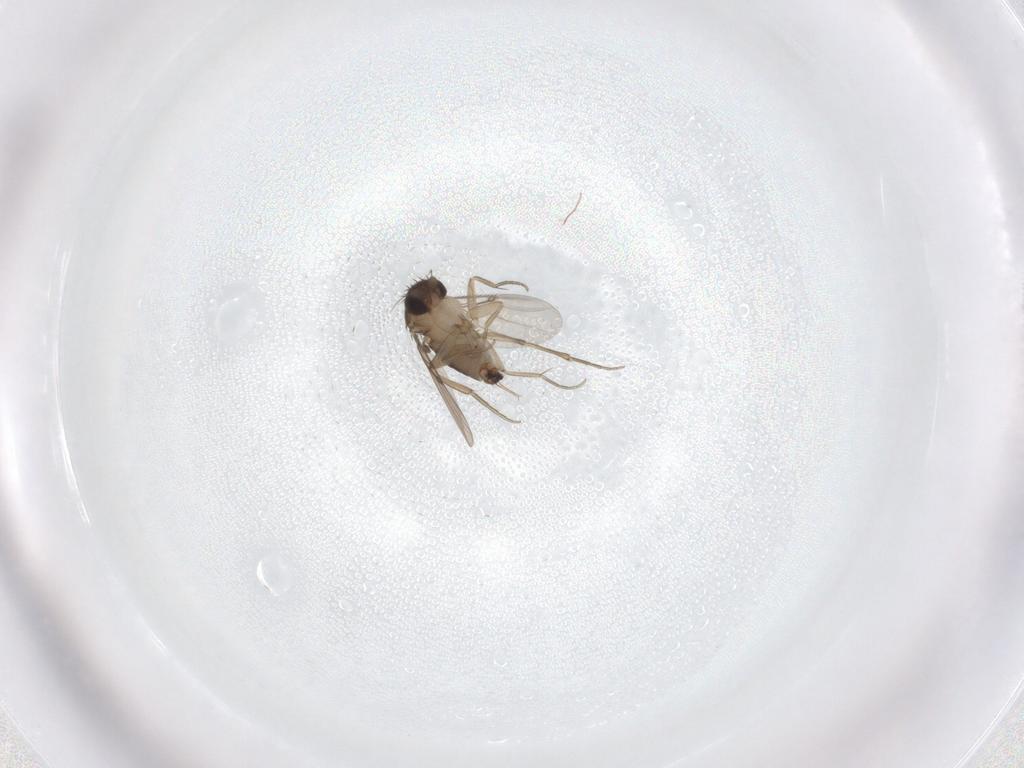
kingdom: Animalia
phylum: Arthropoda
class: Insecta
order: Diptera
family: Phoridae
